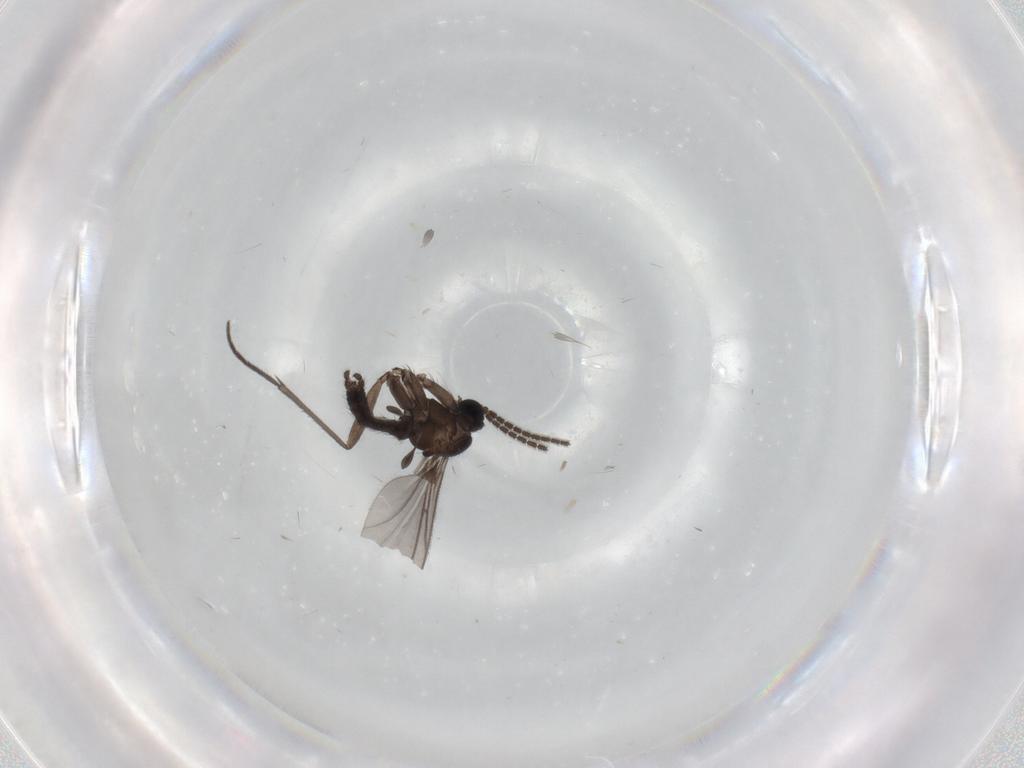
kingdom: Animalia
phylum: Arthropoda
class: Insecta
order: Diptera
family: Sciaridae
